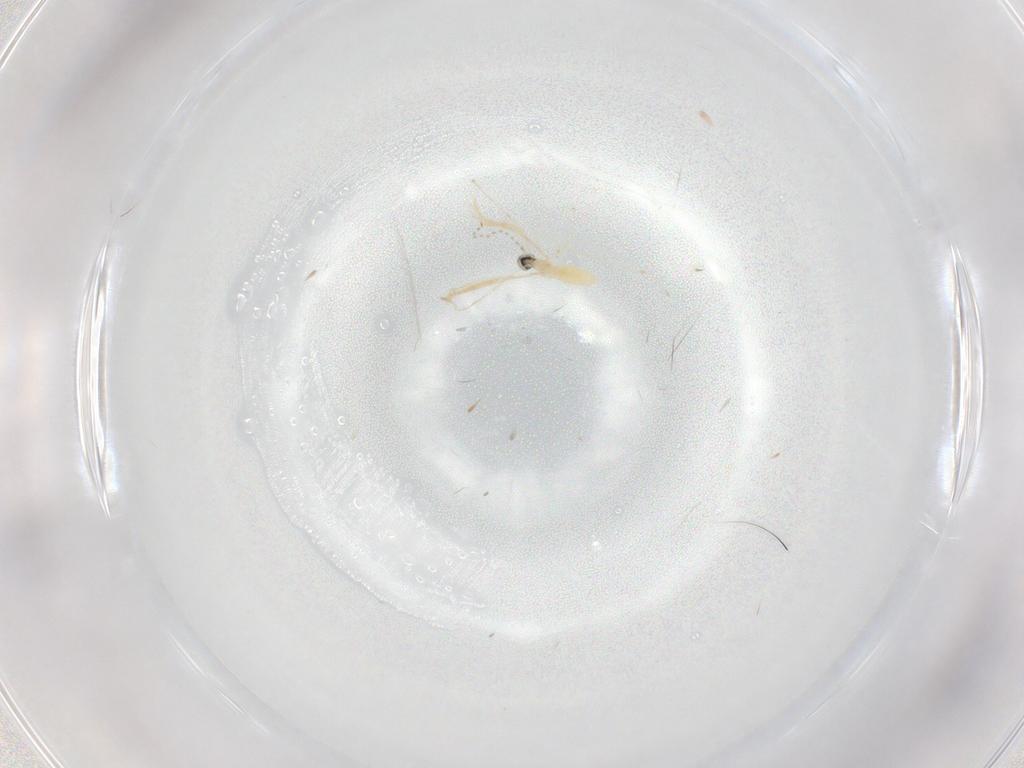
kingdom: Animalia
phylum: Arthropoda
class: Insecta
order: Diptera
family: Cecidomyiidae
